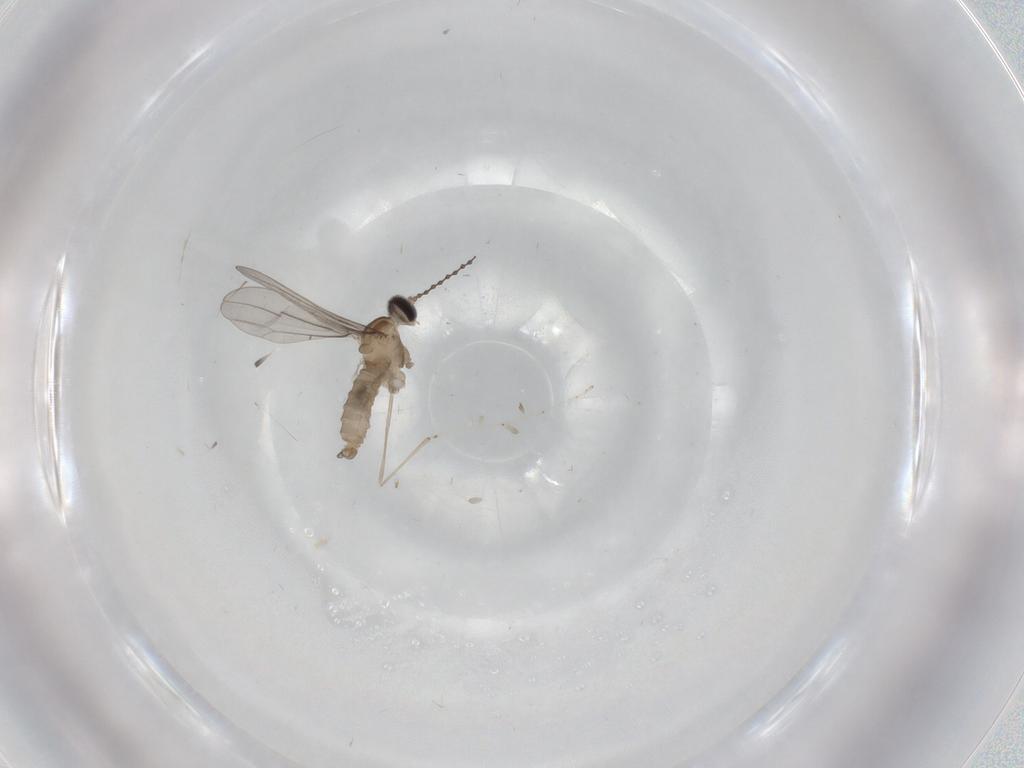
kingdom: Animalia
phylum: Arthropoda
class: Insecta
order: Diptera
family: Cecidomyiidae
